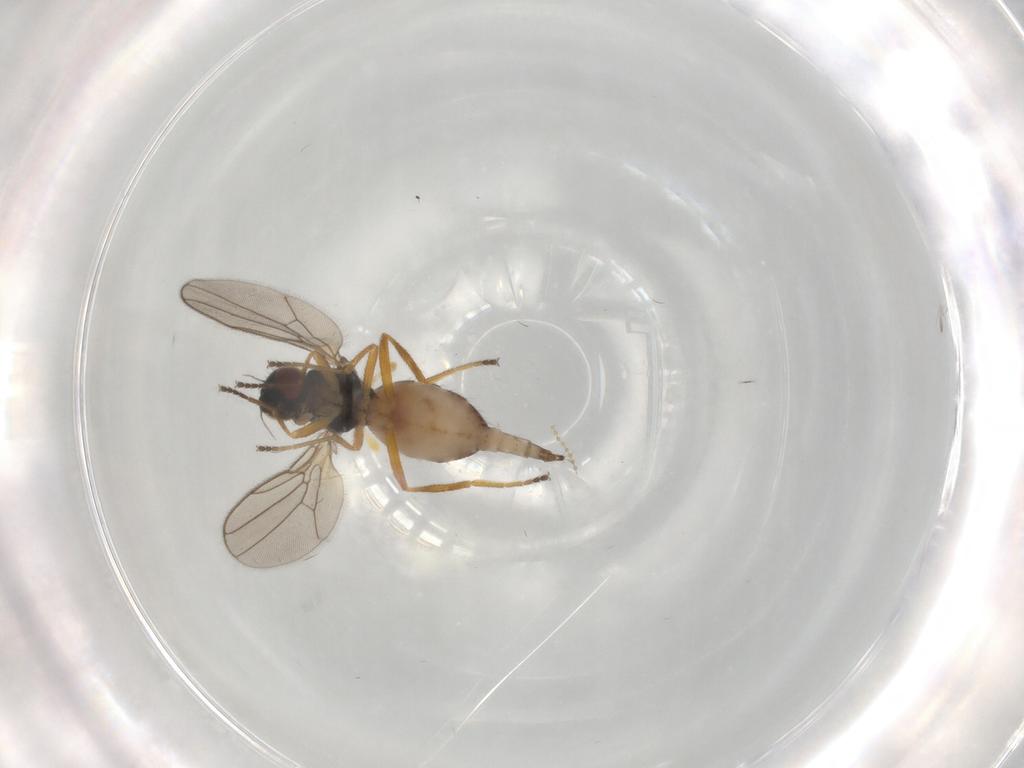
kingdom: Animalia
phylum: Arthropoda
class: Insecta
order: Diptera
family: Chloropidae
